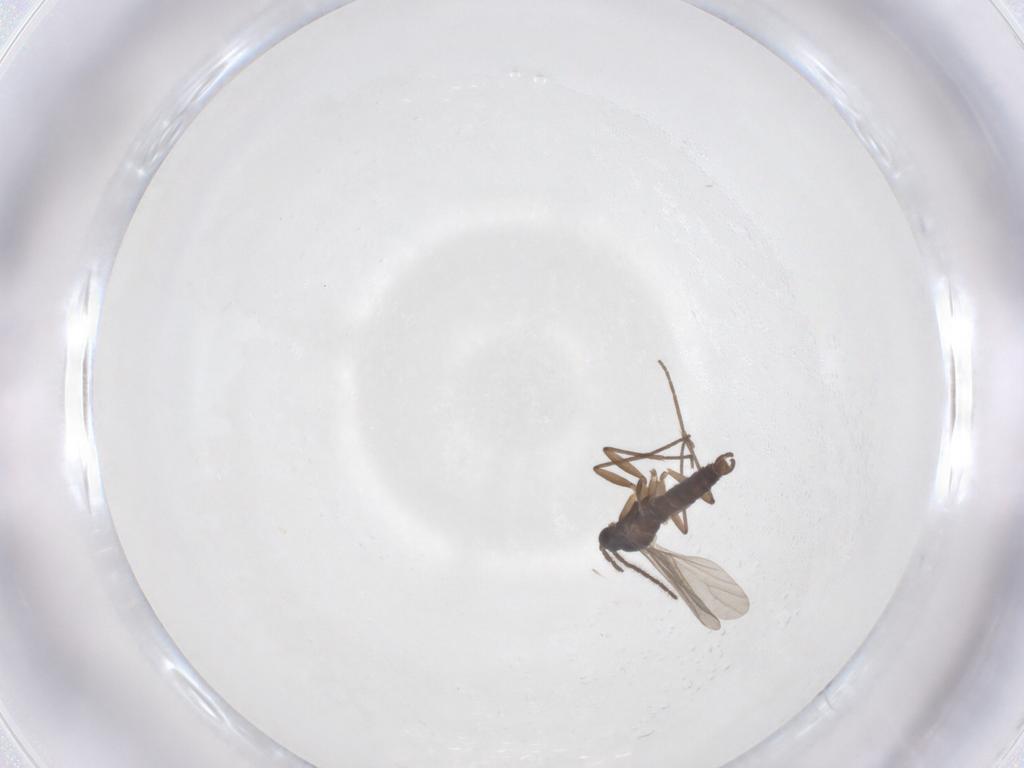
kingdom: Animalia
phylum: Arthropoda
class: Insecta
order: Diptera
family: Sciaridae
